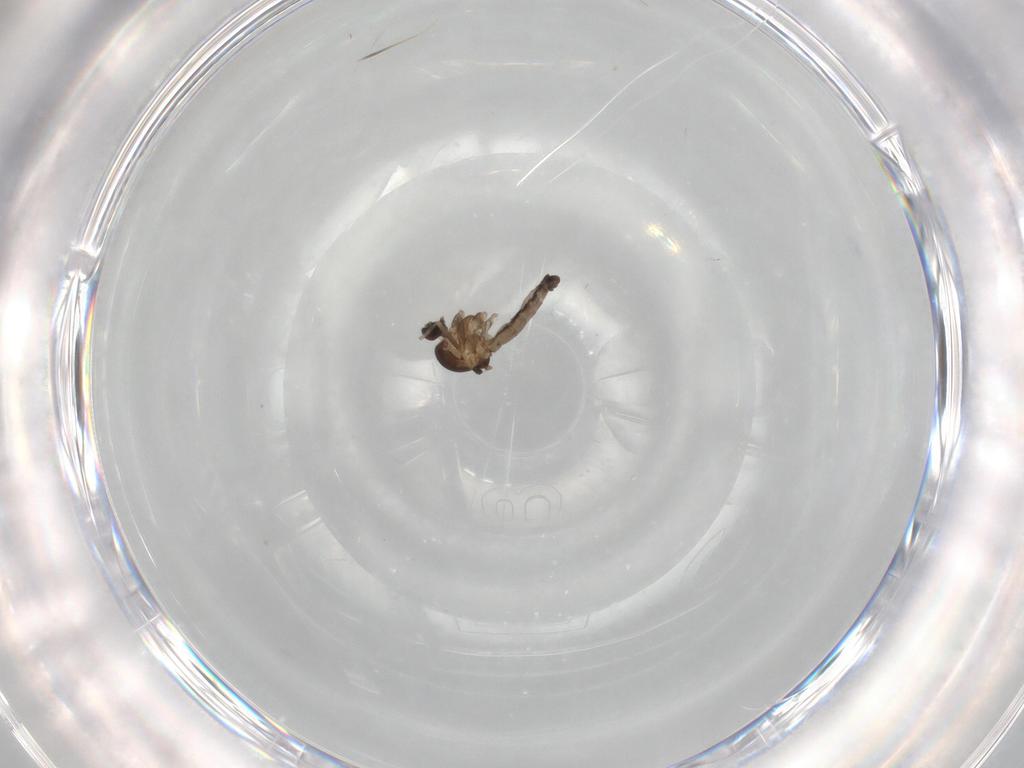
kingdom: Animalia
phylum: Arthropoda
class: Insecta
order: Diptera
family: Ceratopogonidae
